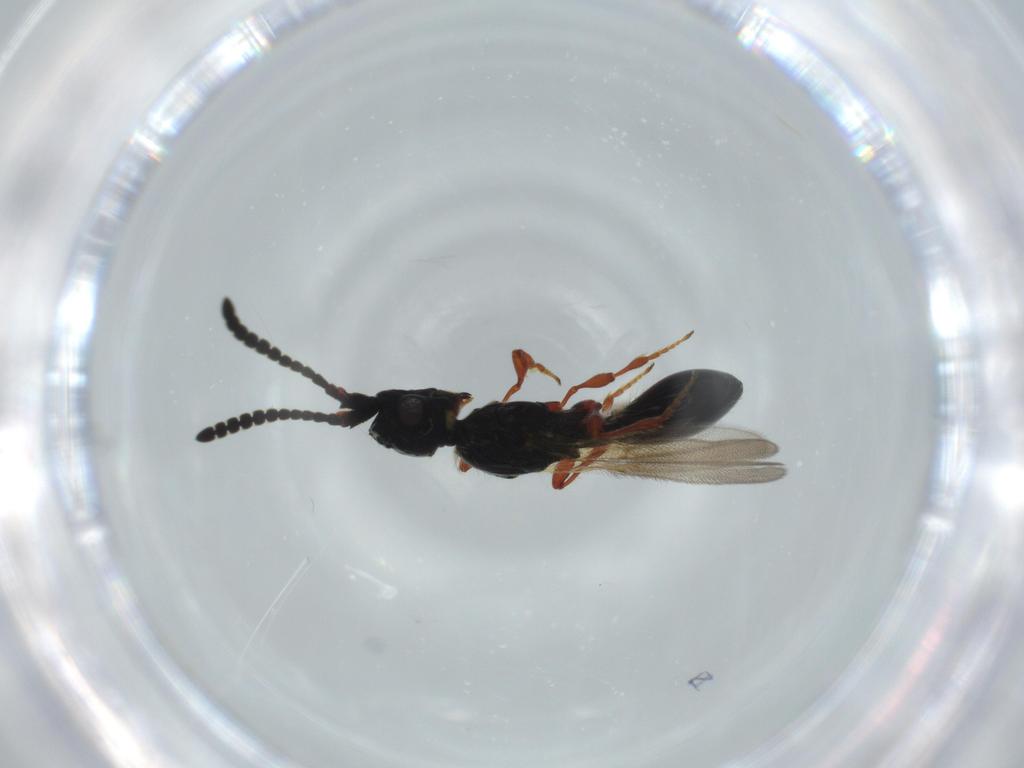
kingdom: Animalia
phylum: Arthropoda
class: Insecta
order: Hymenoptera
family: Diapriidae
